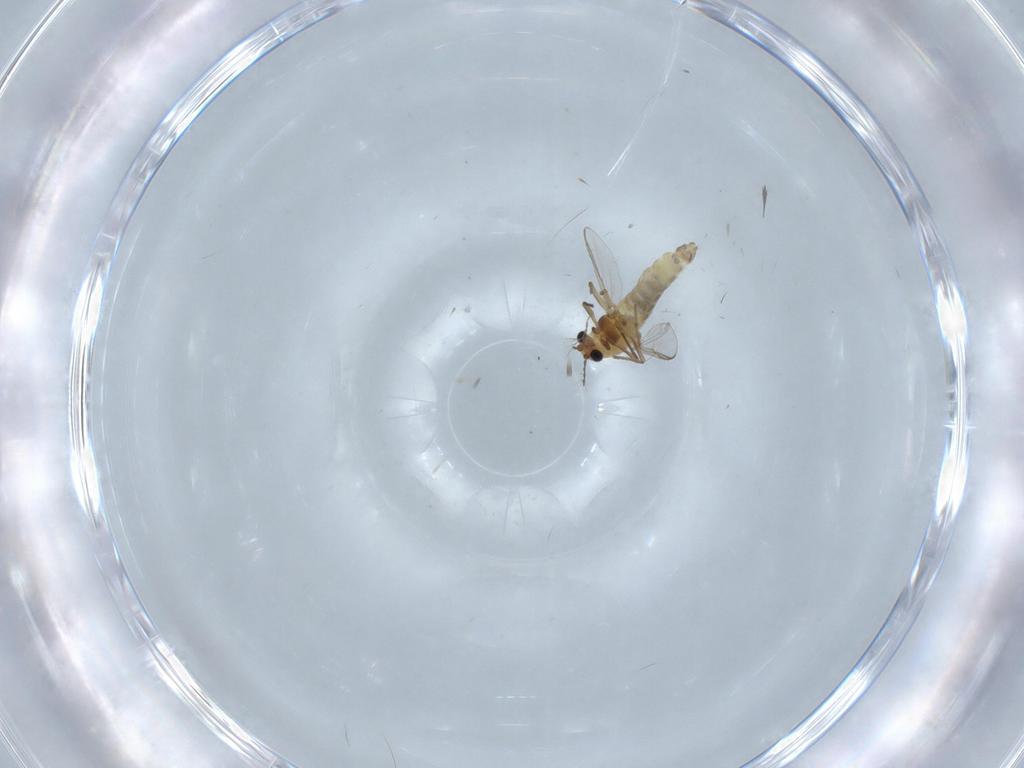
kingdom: Animalia
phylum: Arthropoda
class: Insecta
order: Diptera
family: Chironomidae
